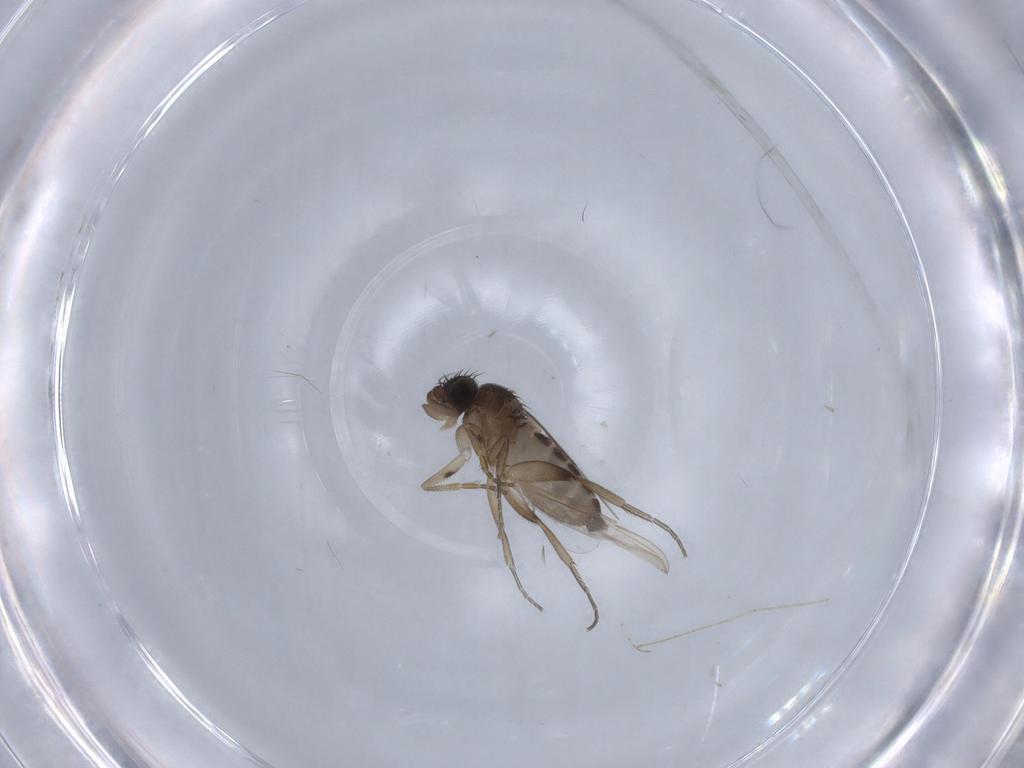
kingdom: Animalia
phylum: Arthropoda
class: Insecta
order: Diptera
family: Phoridae
